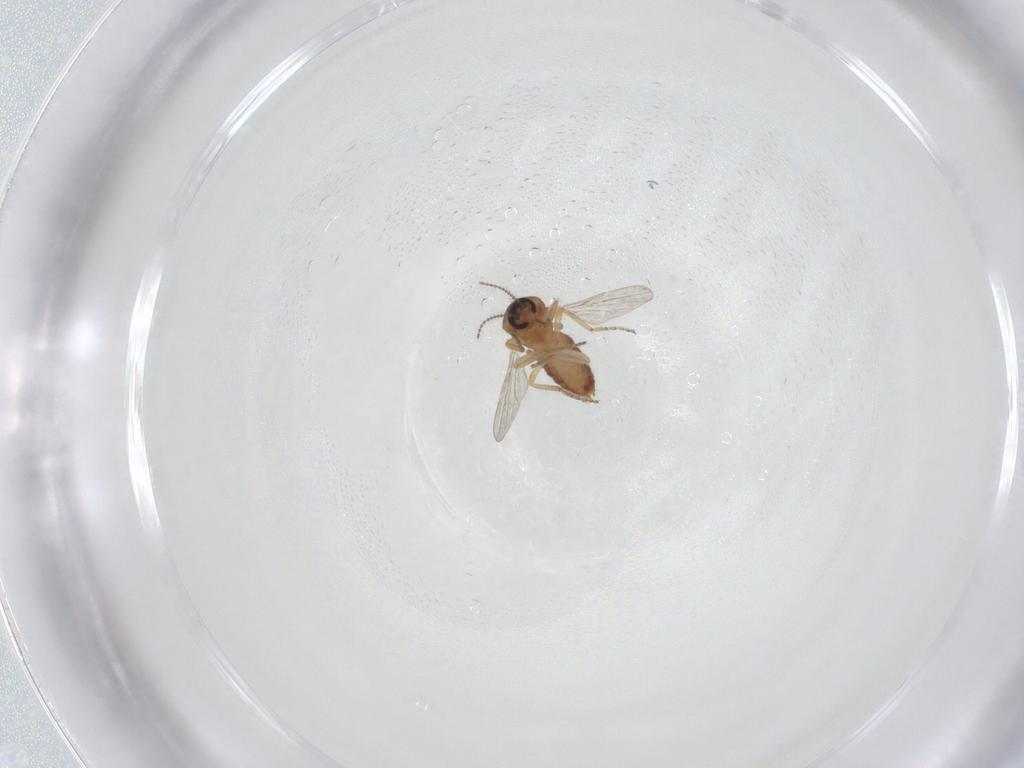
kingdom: Animalia
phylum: Arthropoda
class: Insecta
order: Diptera
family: Ceratopogonidae
